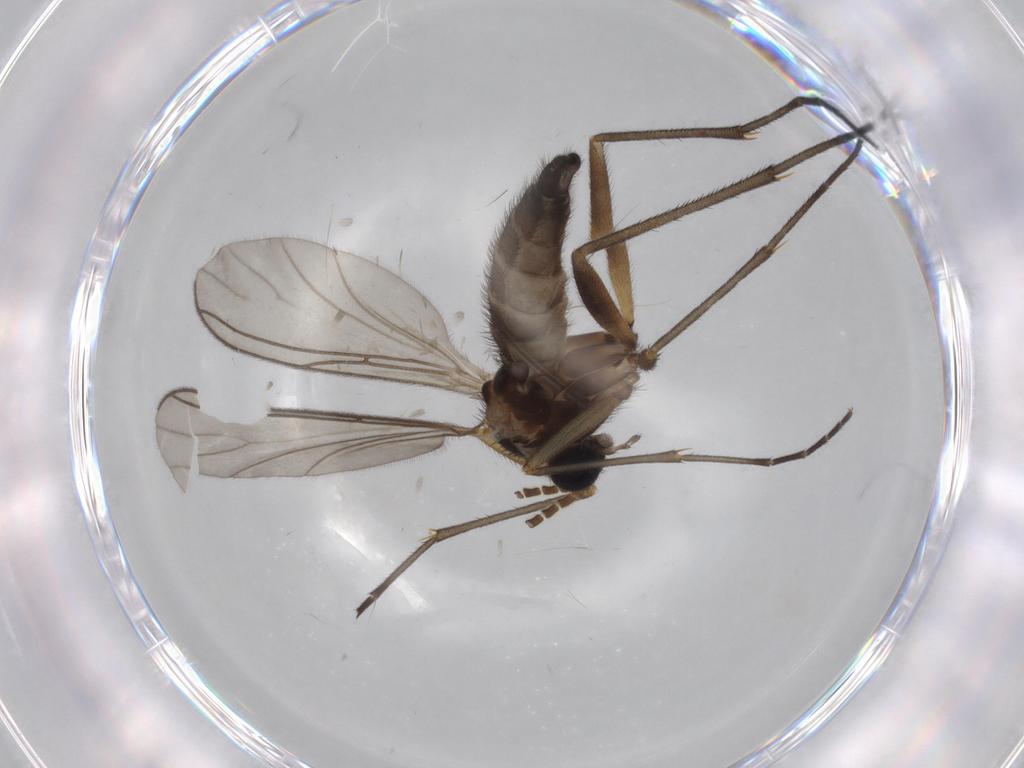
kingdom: Animalia
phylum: Arthropoda
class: Insecta
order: Diptera
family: Sciaridae
